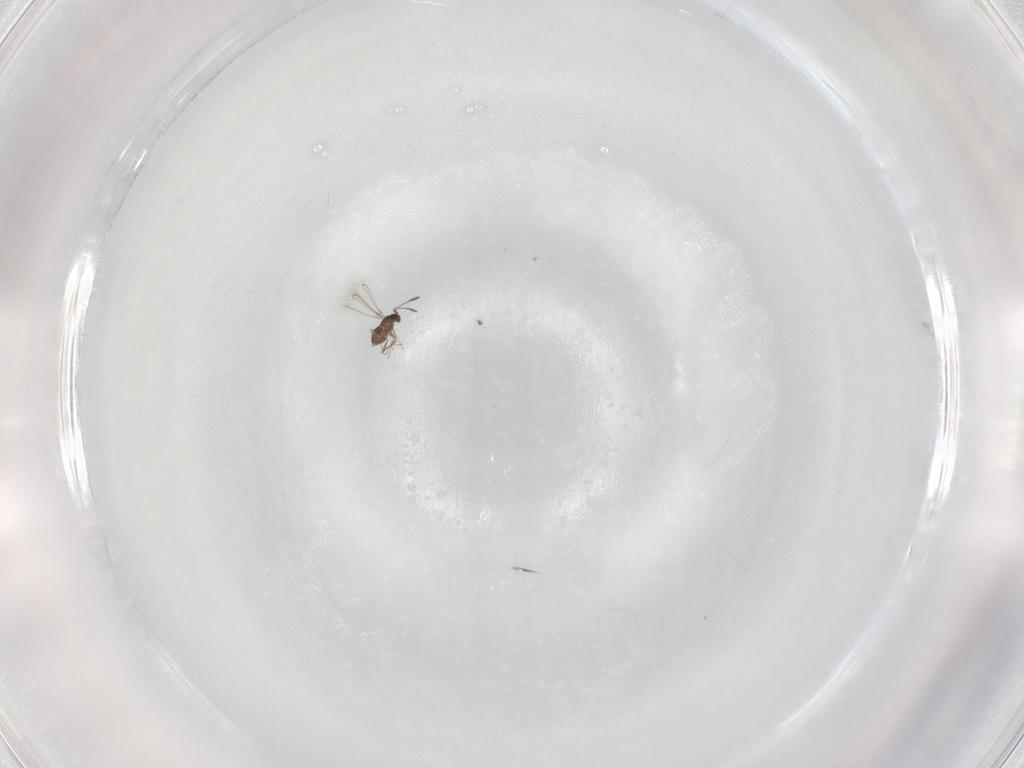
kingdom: Animalia
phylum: Arthropoda
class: Insecta
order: Hymenoptera
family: Mymaridae
